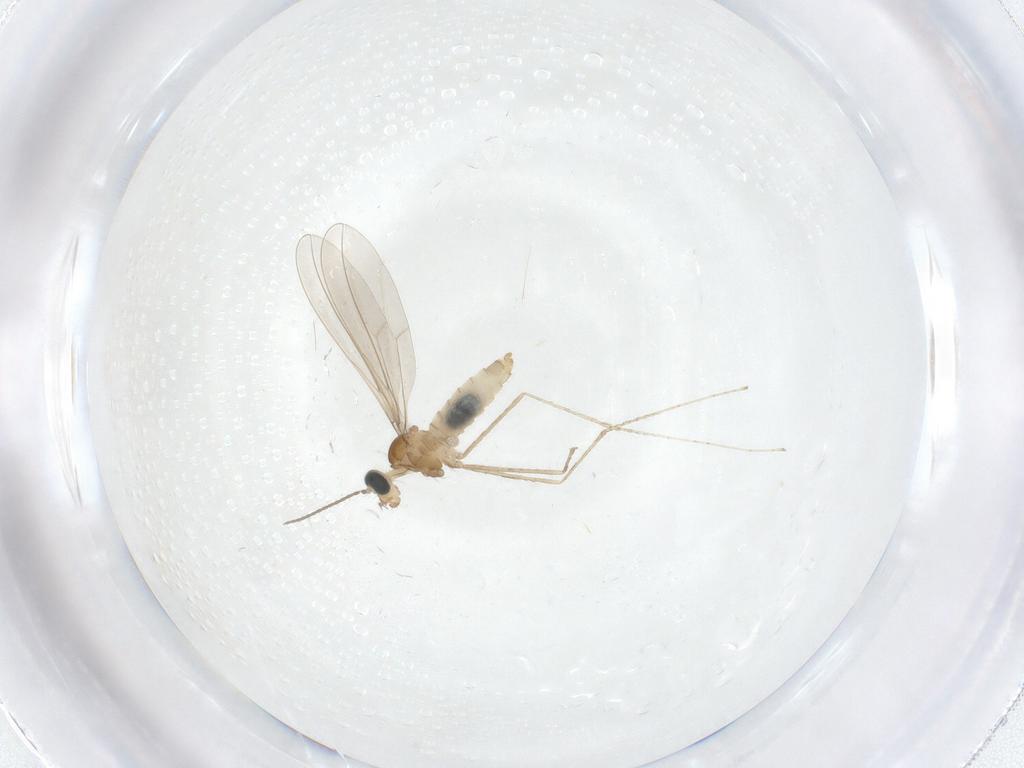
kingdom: Animalia
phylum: Arthropoda
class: Insecta
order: Diptera
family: Cecidomyiidae
